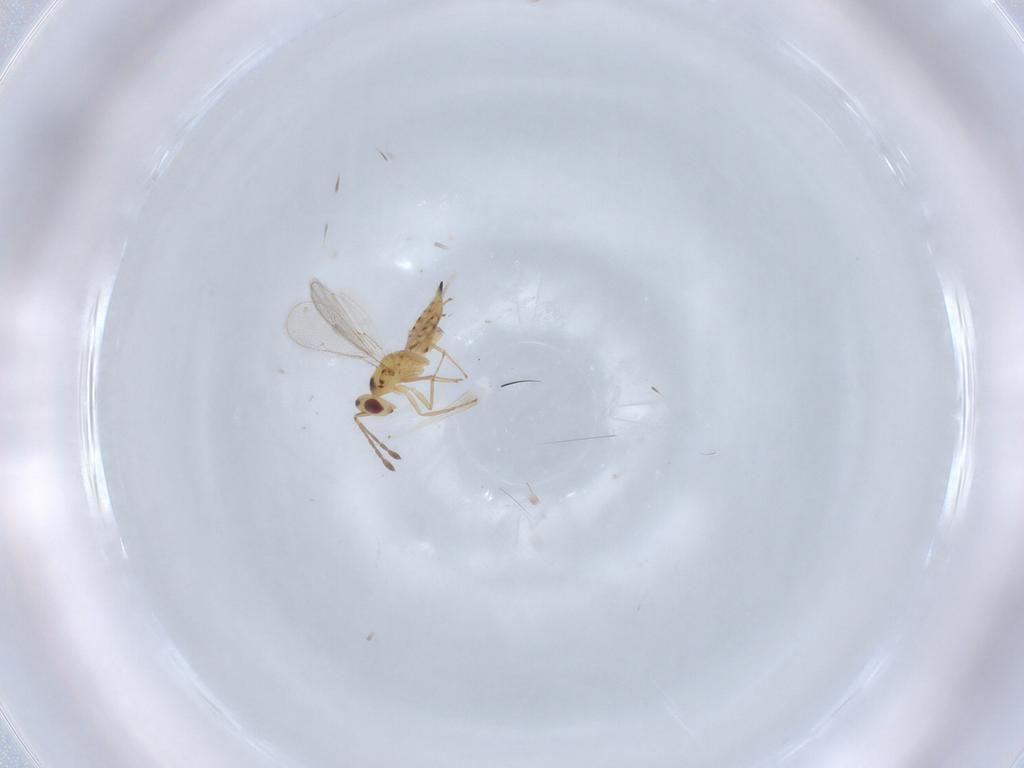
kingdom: Animalia
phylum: Arthropoda
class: Insecta
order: Hymenoptera
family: Eulophidae
